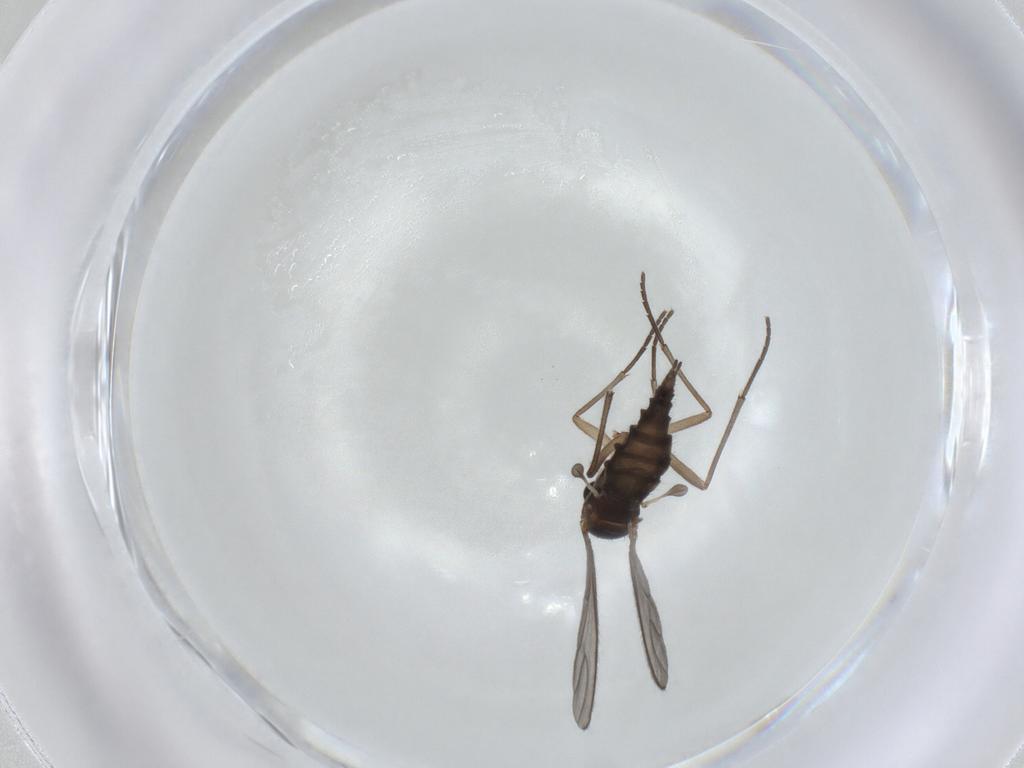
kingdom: Animalia
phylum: Arthropoda
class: Insecta
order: Diptera
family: Sciaridae
